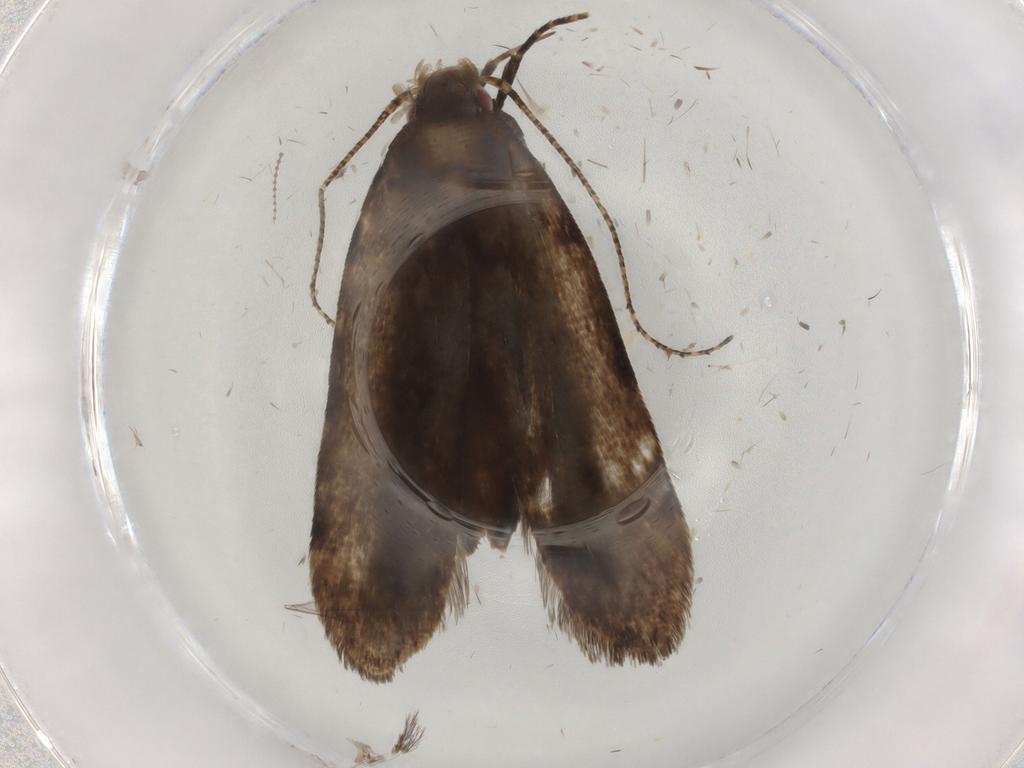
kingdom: Animalia
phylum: Arthropoda
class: Insecta
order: Lepidoptera
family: Gelechiidae
